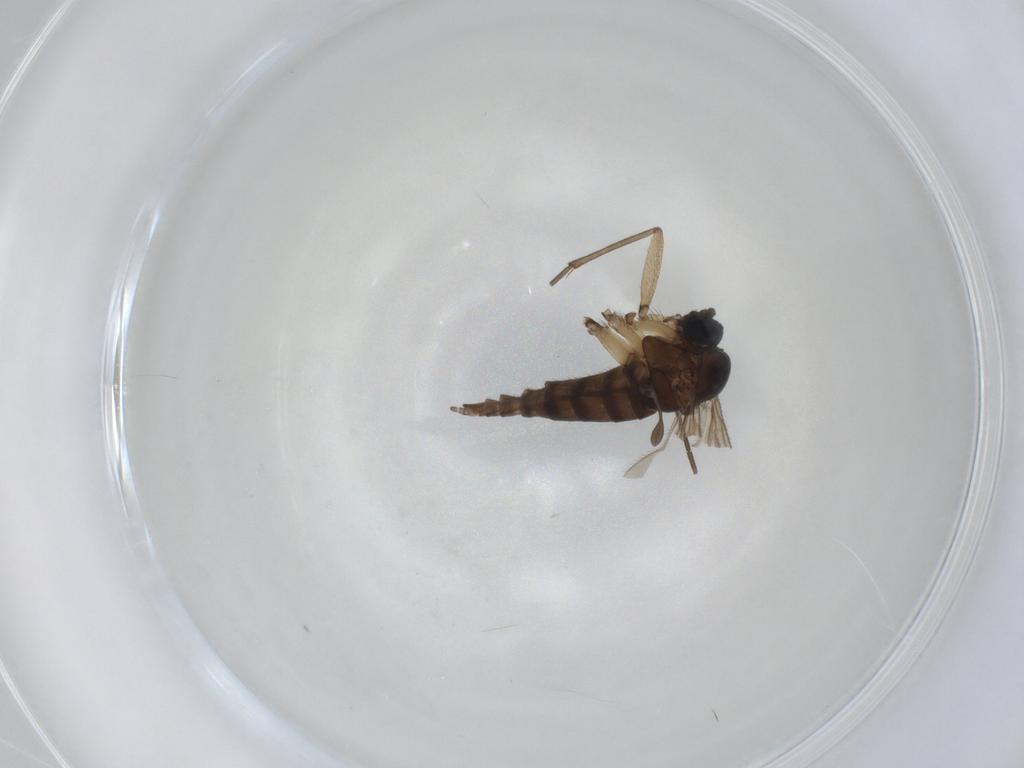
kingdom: Animalia
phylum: Arthropoda
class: Insecta
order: Diptera
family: Sciaridae
